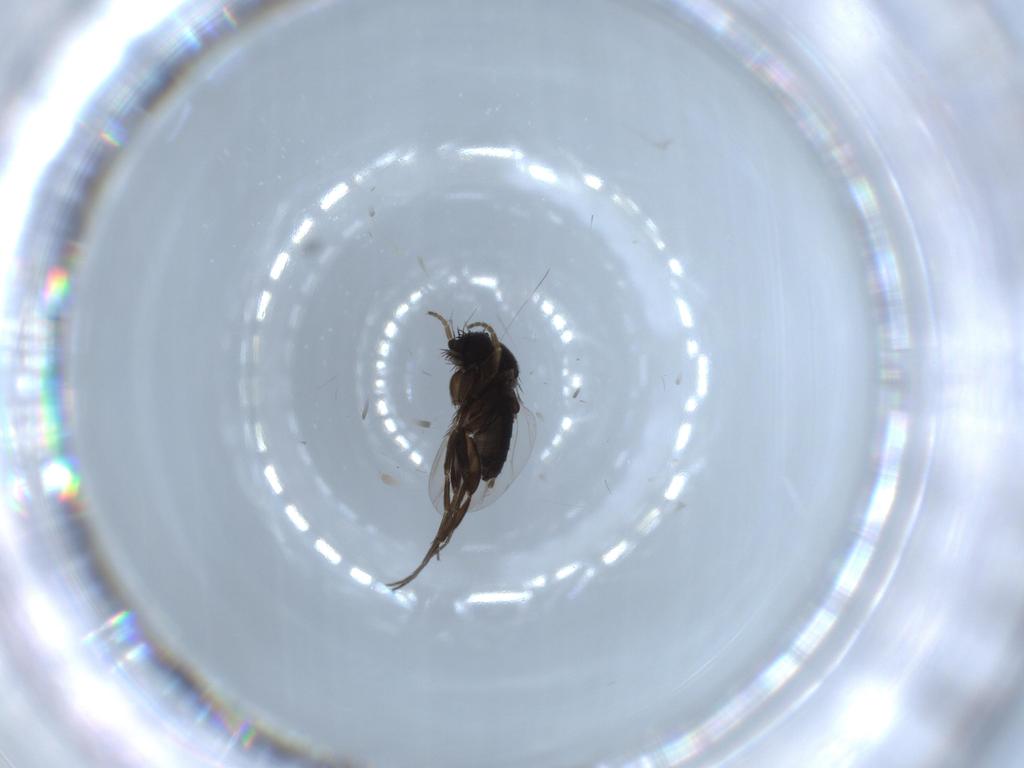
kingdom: Animalia
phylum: Arthropoda
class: Insecta
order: Diptera
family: Phoridae
